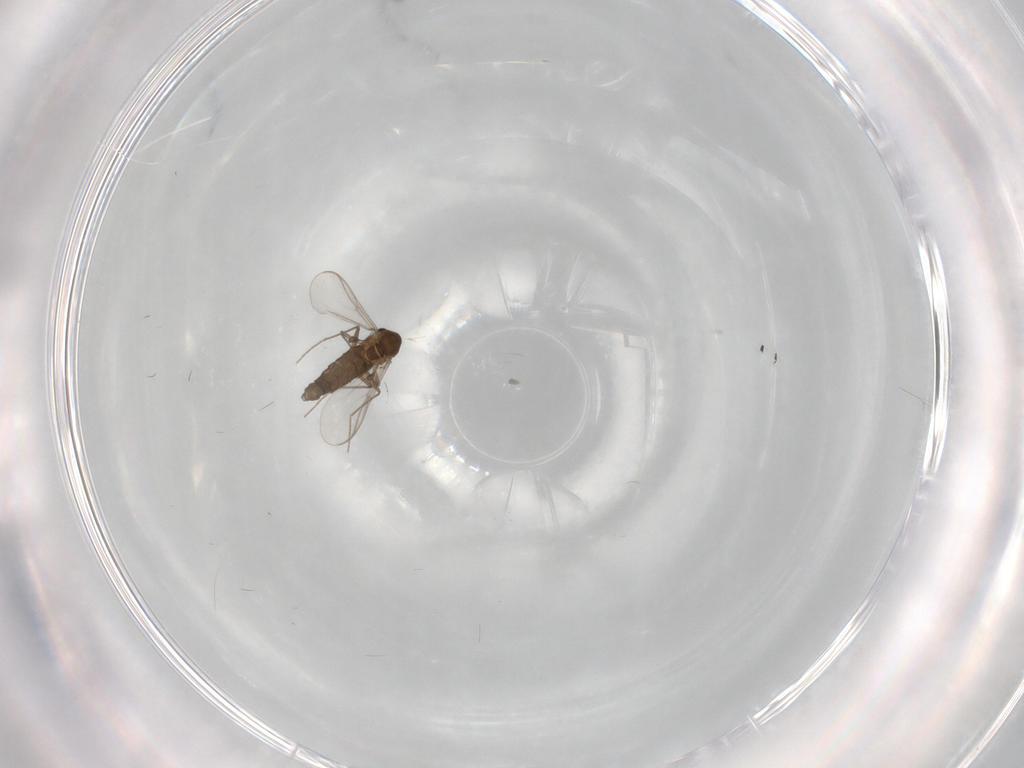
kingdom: Animalia
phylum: Arthropoda
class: Insecta
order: Diptera
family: Chironomidae
